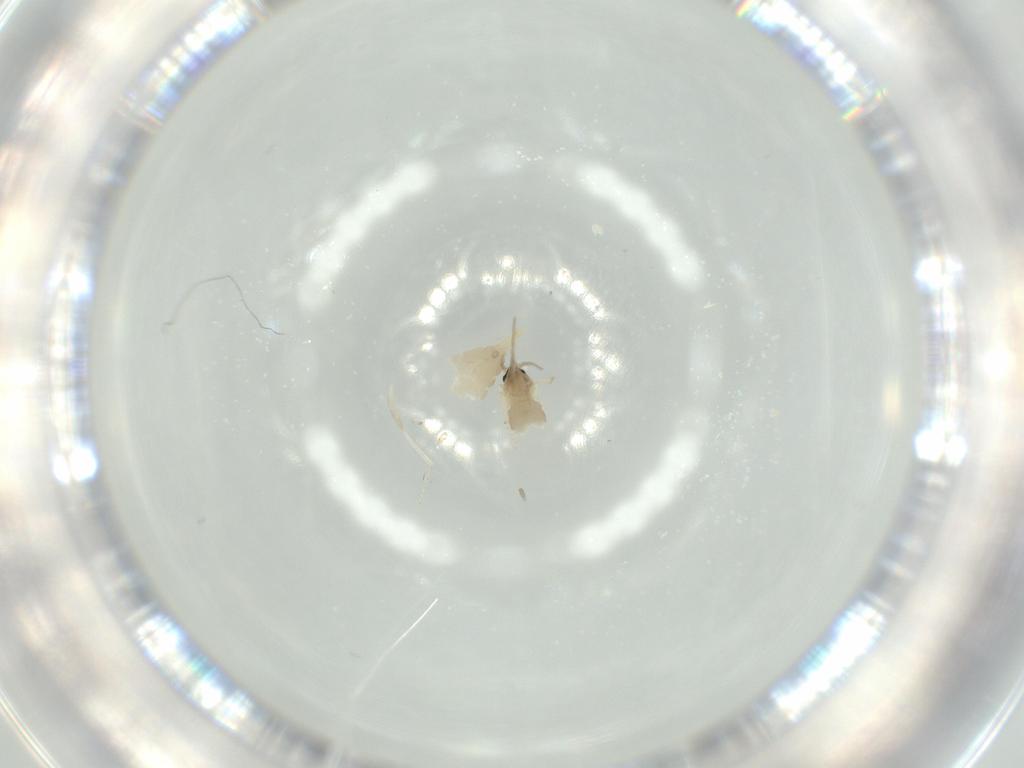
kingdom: Animalia
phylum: Arthropoda
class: Insecta
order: Diptera
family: Cecidomyiidae
